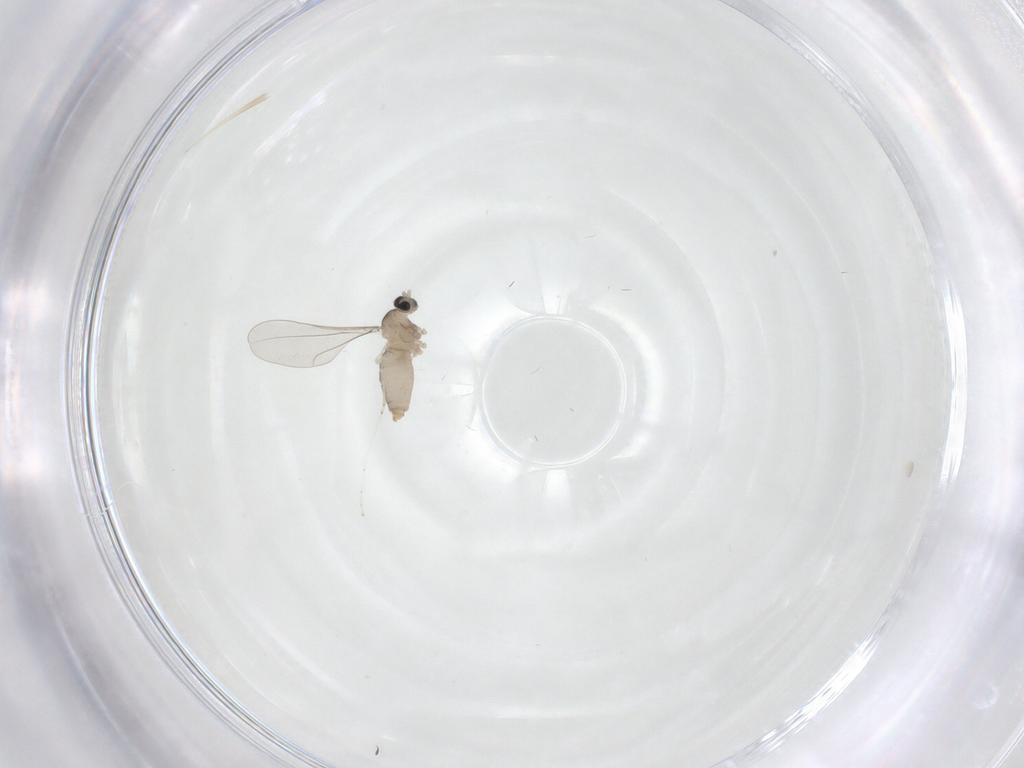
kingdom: Animalia
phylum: Arthropoda
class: Insecta
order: Diptera
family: Cecidomyiidae
